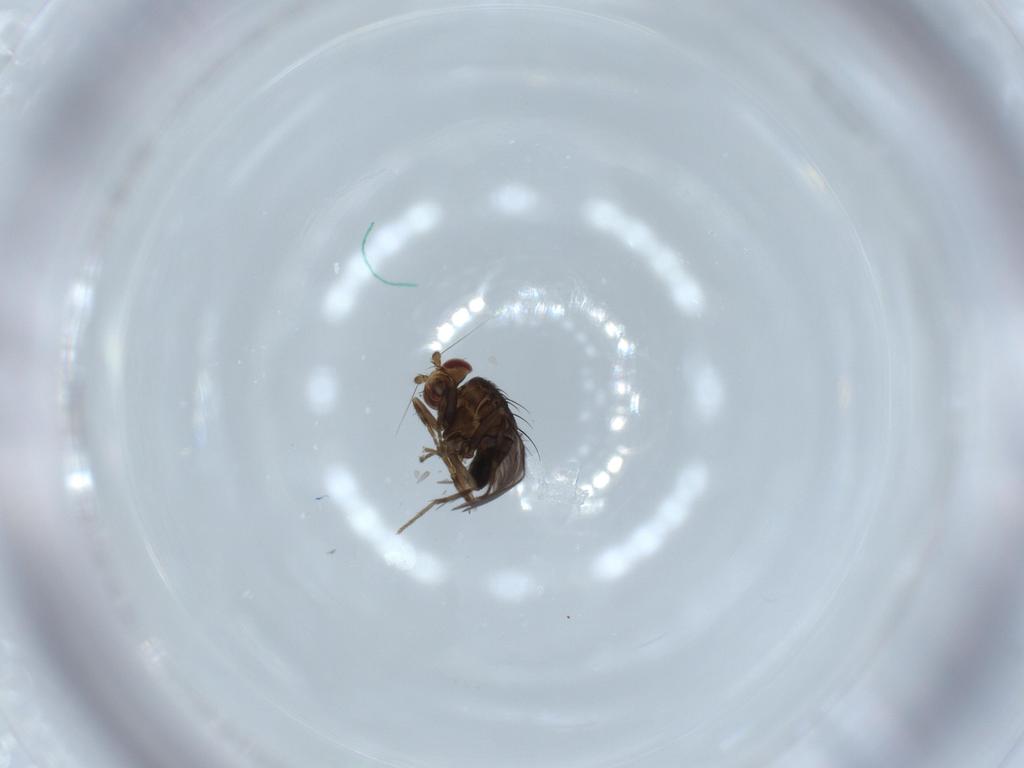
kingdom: Animalia
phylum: Arthropoda
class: Insecta
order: Diptera
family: Sphaeroceridae
